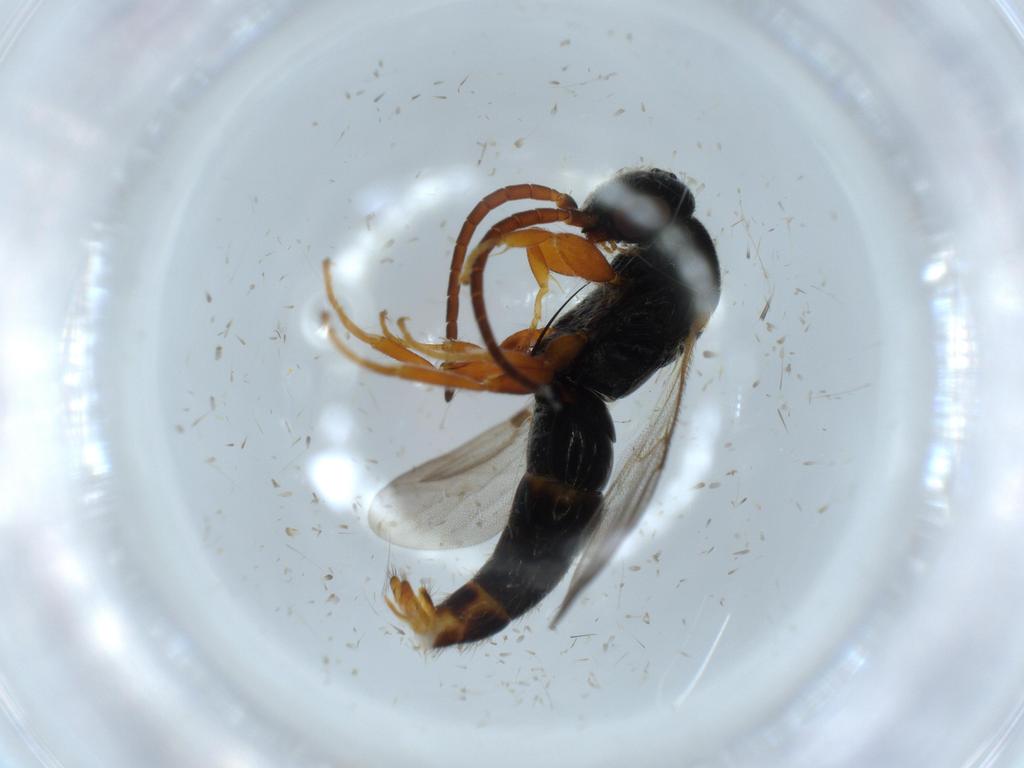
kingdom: Animalia
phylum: Arthropoda
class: Insecta
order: Hymenoptera
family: Bethylidae
